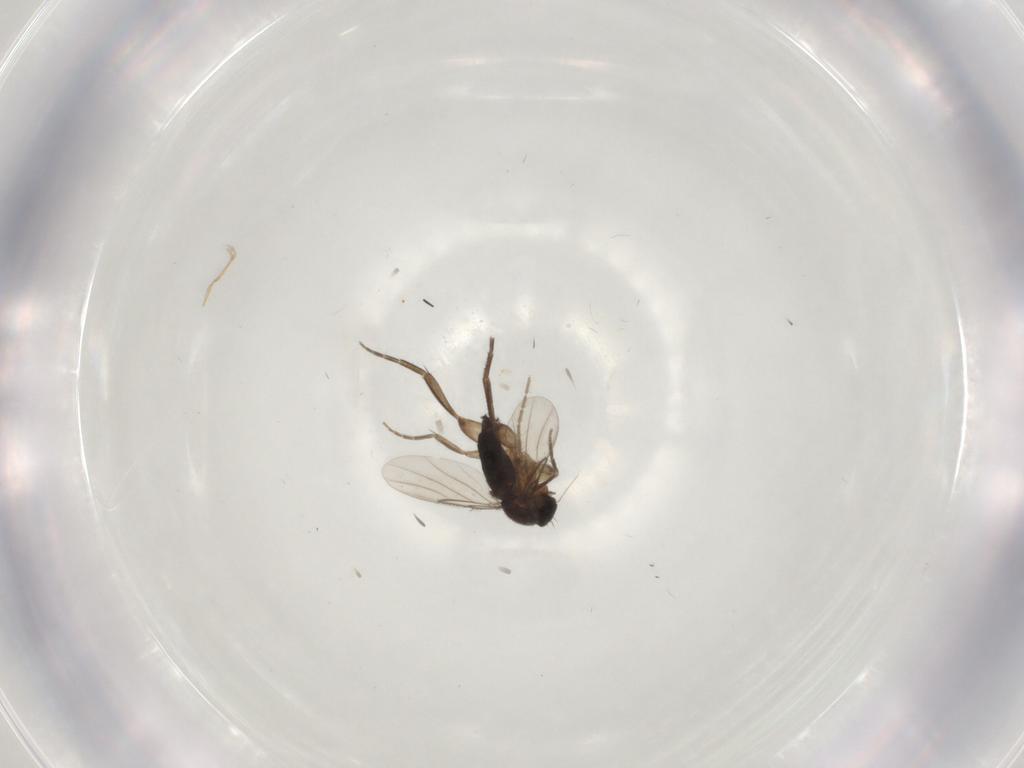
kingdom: Animalia
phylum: Arthropoda
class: Insecta
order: Diptera
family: Phoridae
